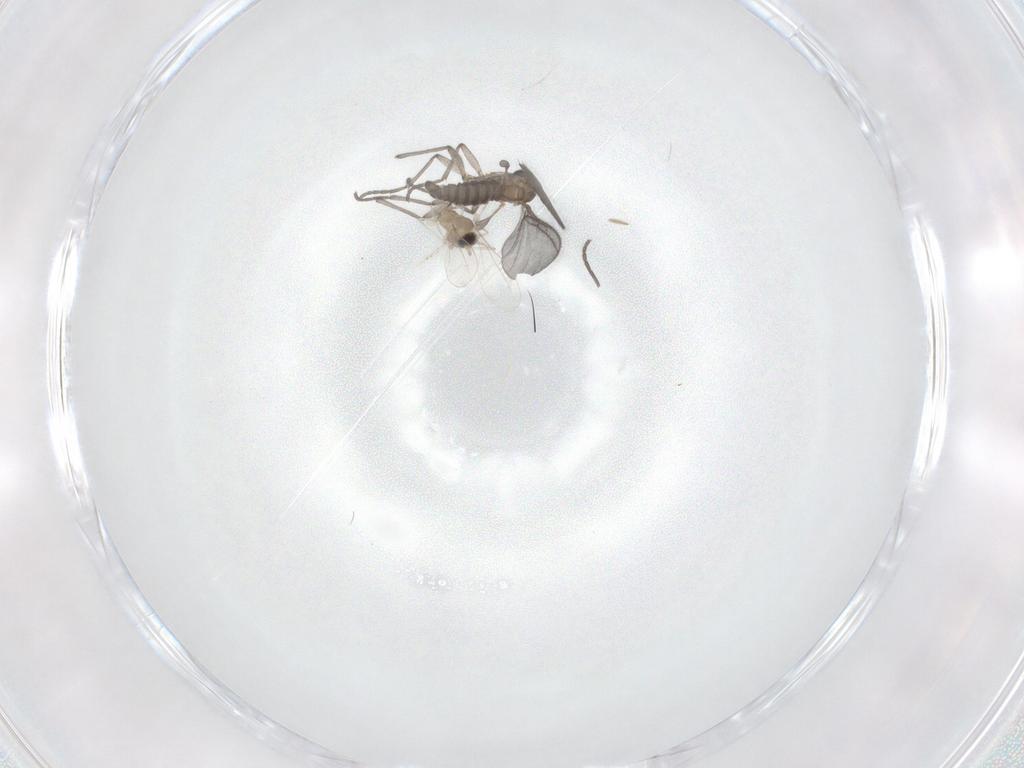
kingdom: Animalia
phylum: Arthropoda
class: Insecta
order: Diptera
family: Sciaridae
